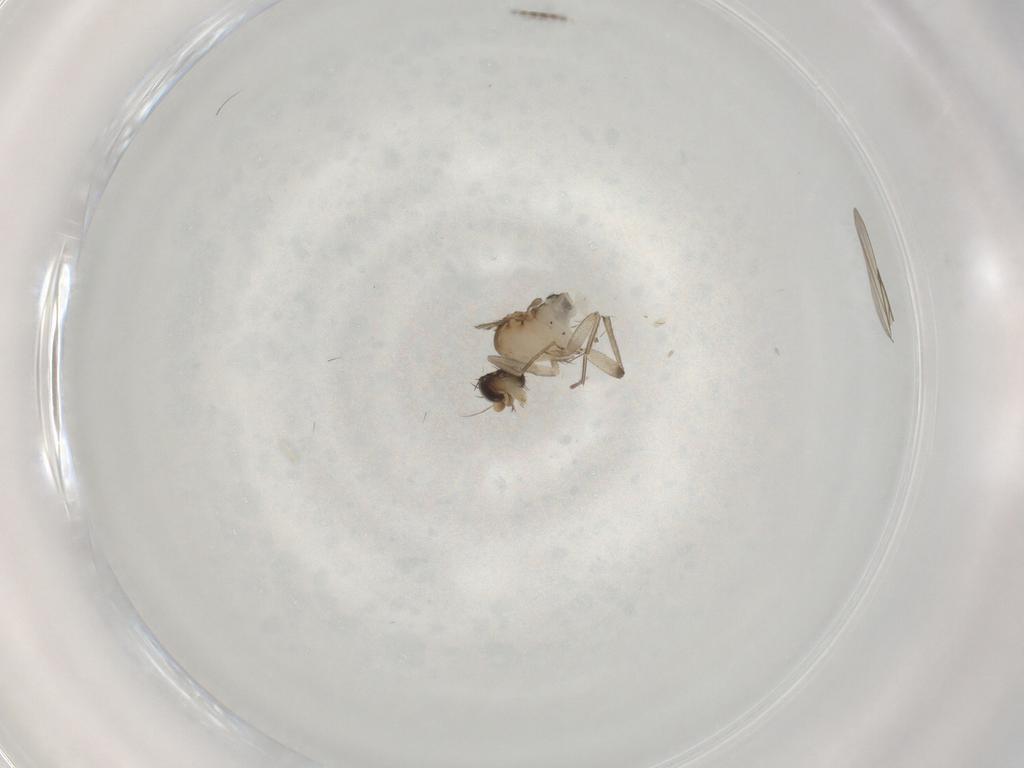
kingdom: Animalia
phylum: Arthropoda
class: Insecta
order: Diptera
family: Phoridae
